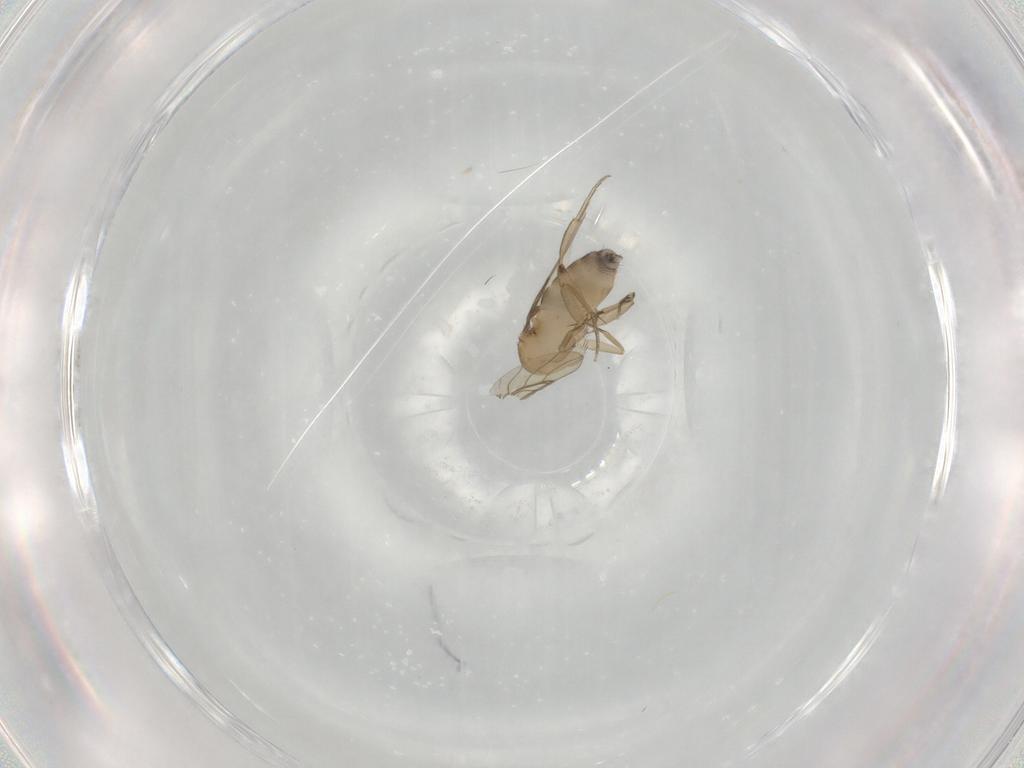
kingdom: Animalia
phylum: Arthropoda
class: Insecta
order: Diptera
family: Phoridae
